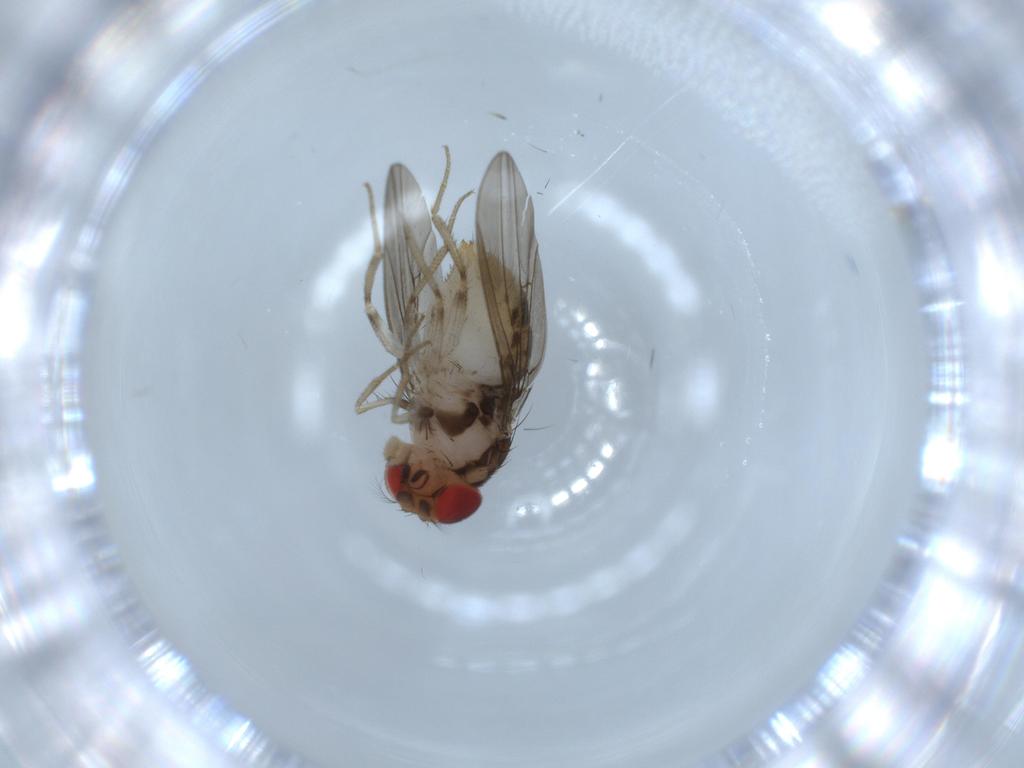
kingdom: Animalia
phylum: Arthropoda
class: Insecta
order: Diptera
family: Drosophilidae
